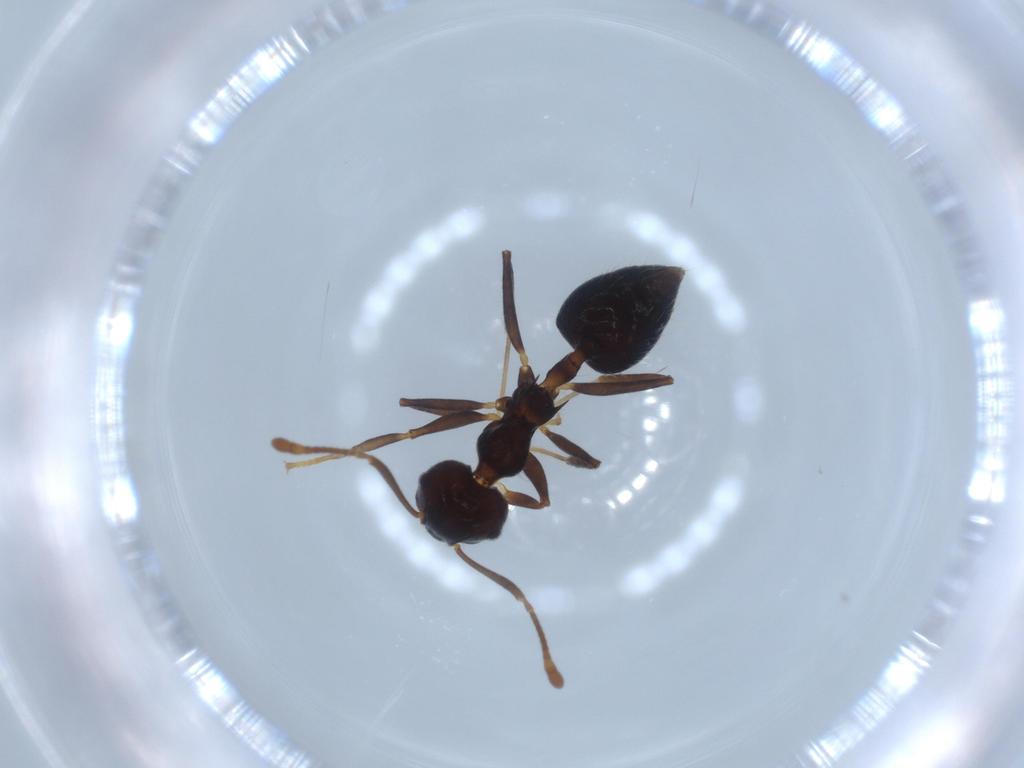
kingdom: Animalia
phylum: Arthropoda
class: Insecta
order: Hymenoptera
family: Formicidae
